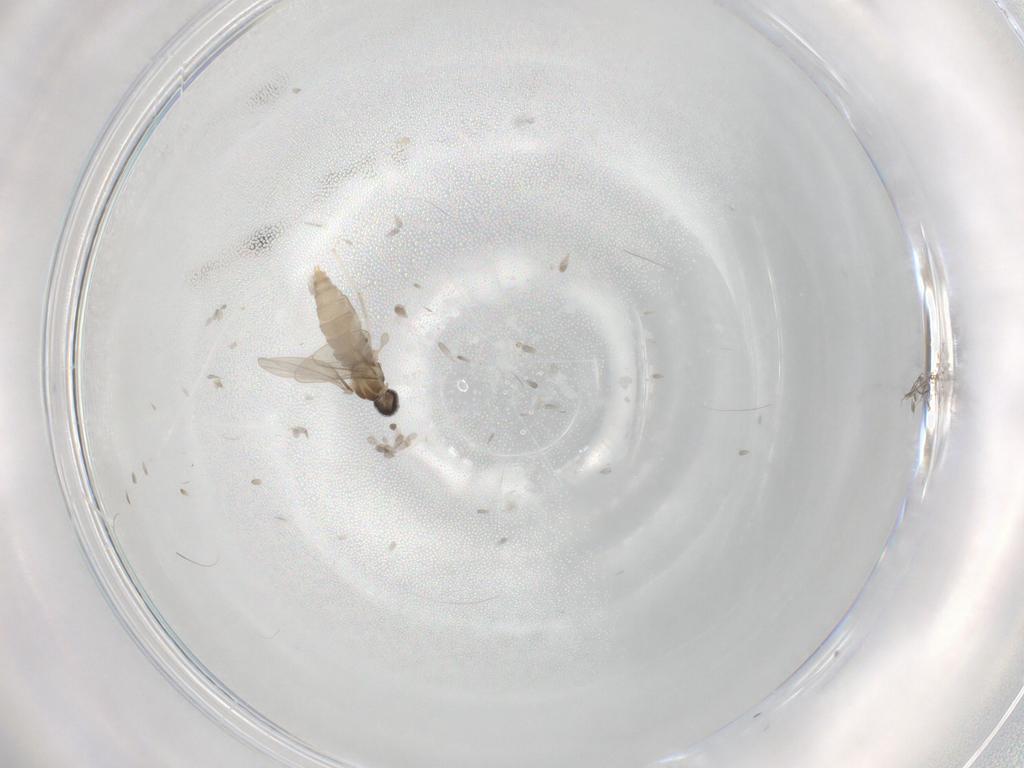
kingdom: Animalia
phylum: Arthropoda
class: Insecta
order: Diptera
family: Cecidomyiidae
